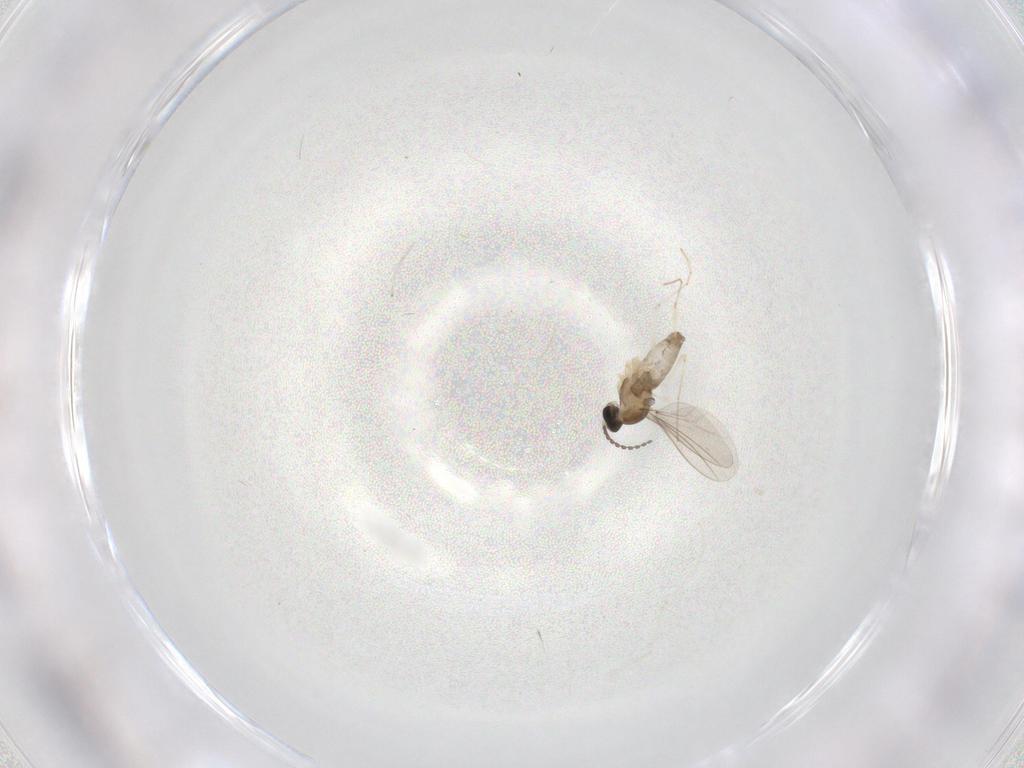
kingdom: Animalia
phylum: Arthropoda
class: Insecta
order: Diptera
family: Cecidomyiidae
